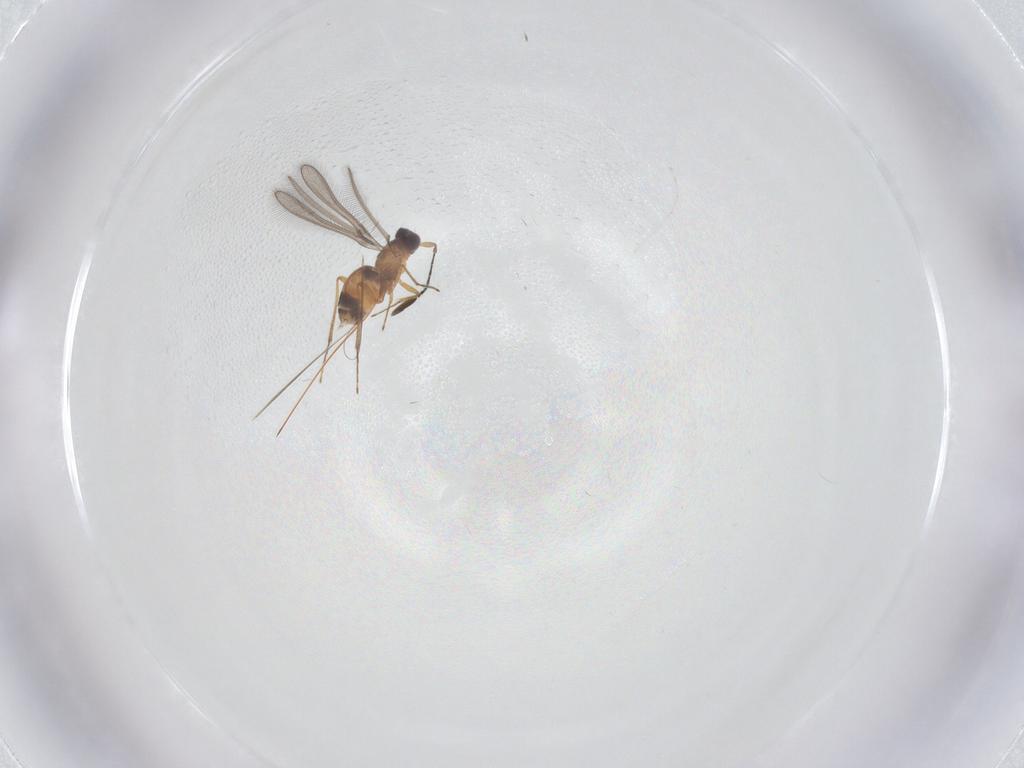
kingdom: Animalia
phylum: Arthropoda
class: Insecta
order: Hymenoptera
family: Mymaridae
